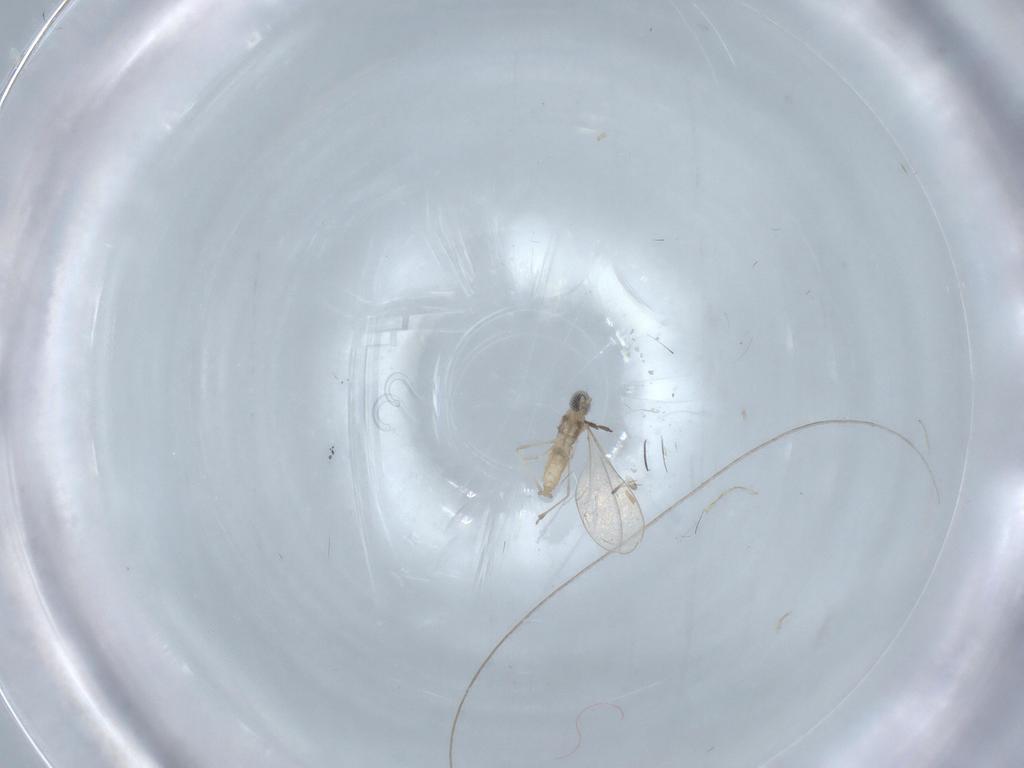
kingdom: Animalia
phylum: Arthropoda
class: Insecta
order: Diptera
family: Cecidomyiidae
